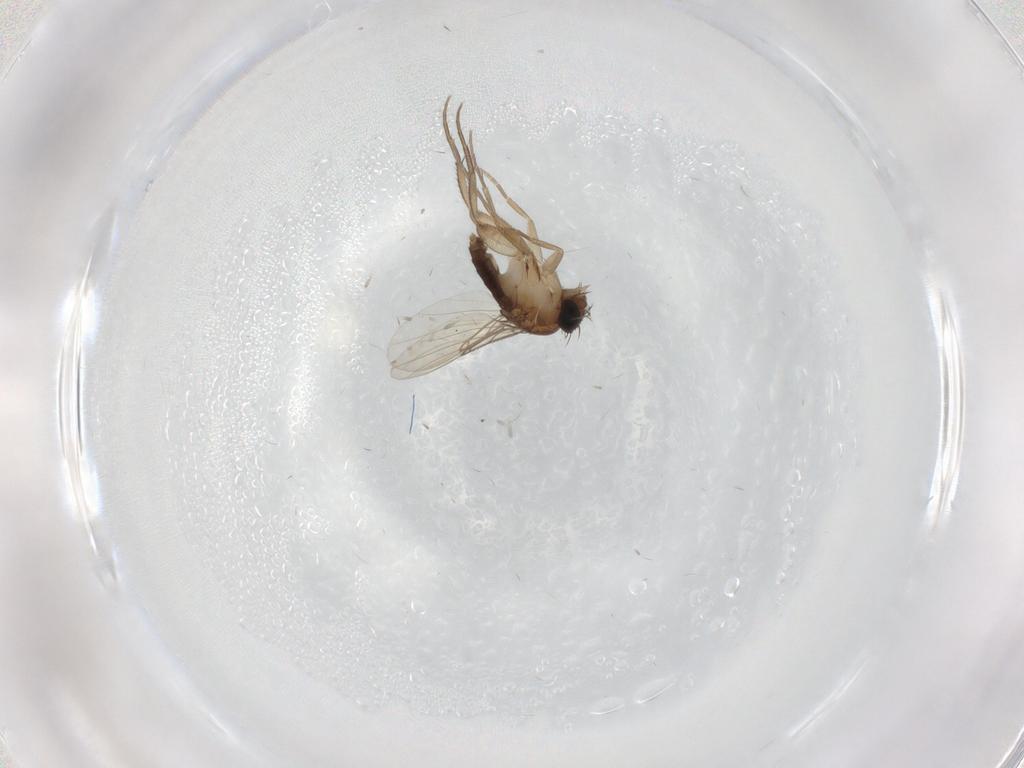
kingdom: Animalia
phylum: Arthropoda
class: Insecta
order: Diptera
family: Phoridae
